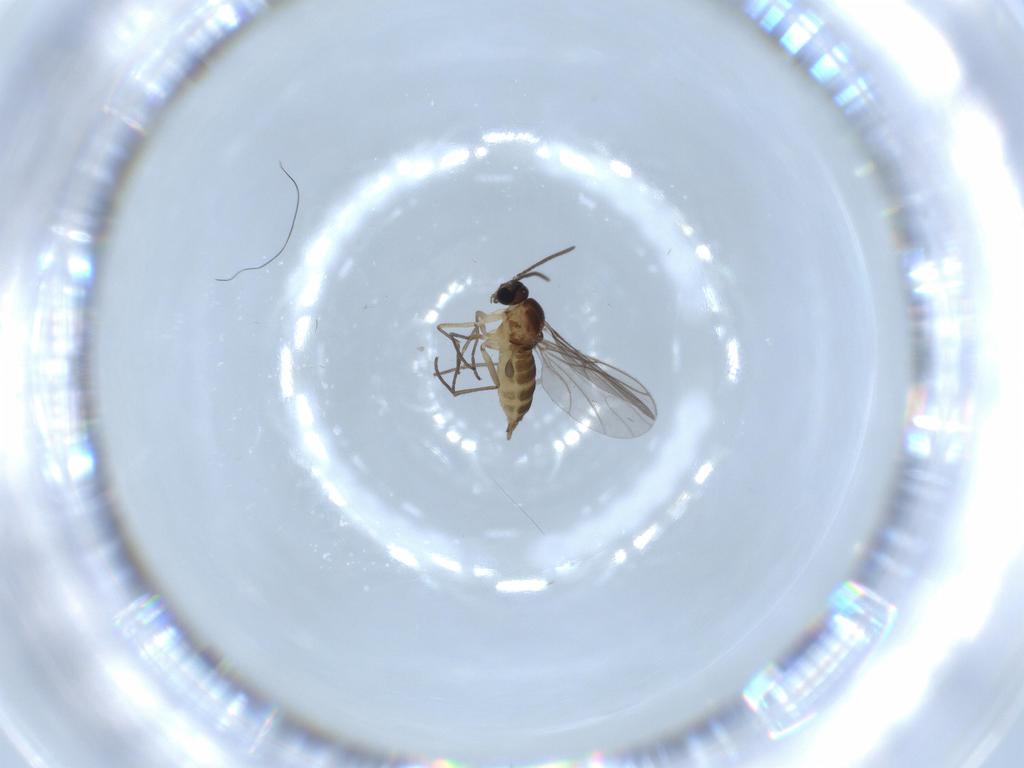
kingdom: Animalia
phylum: Arthropoda
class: Insecta
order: Diptera
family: Sciaridae
